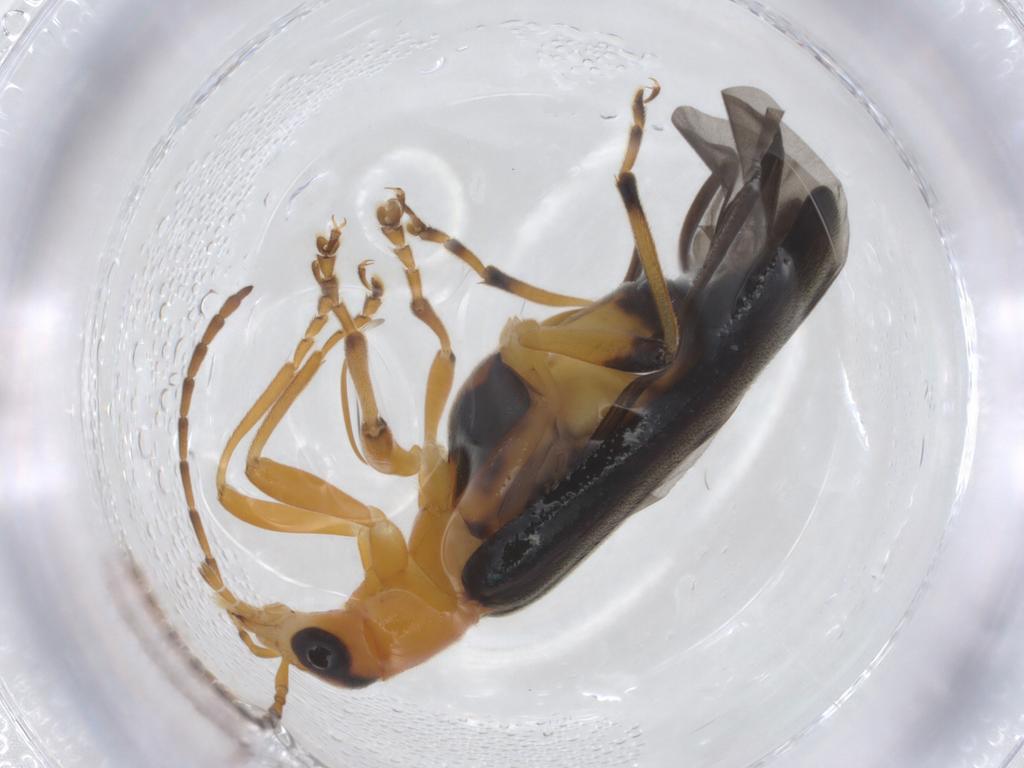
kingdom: Animalia
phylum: Arthropoda
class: Insecta
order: Coleoptera
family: Oedemeridae
